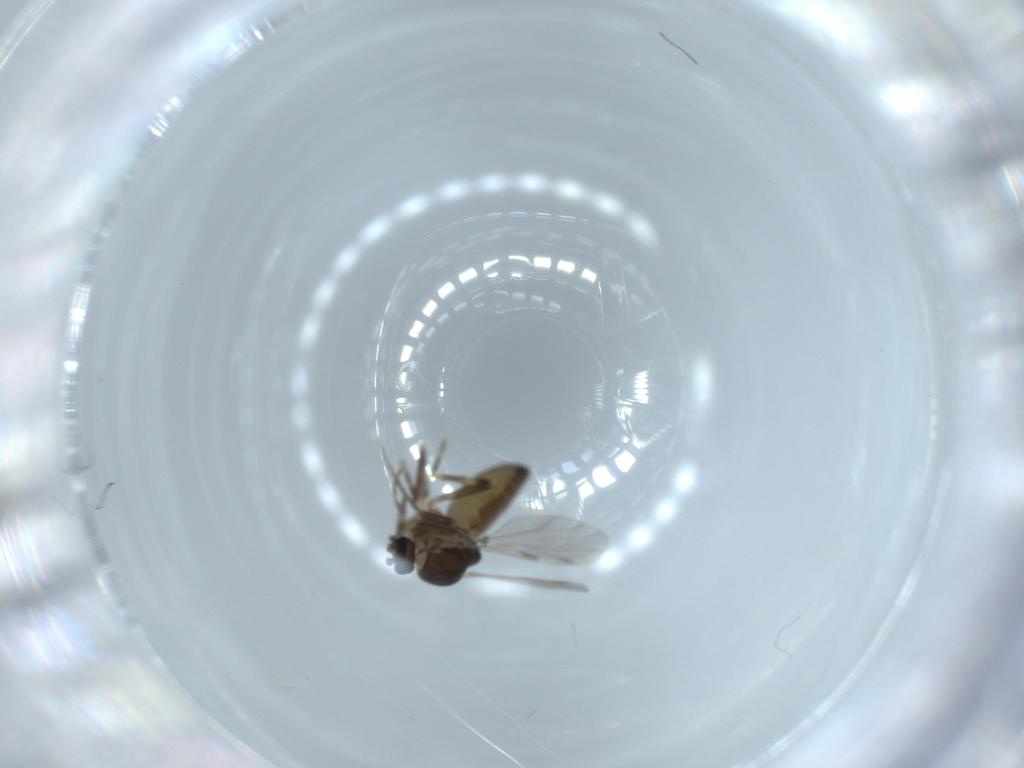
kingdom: Animalia
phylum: Arthropoda
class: Insecta
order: Diptera
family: Ceratopogonidae
